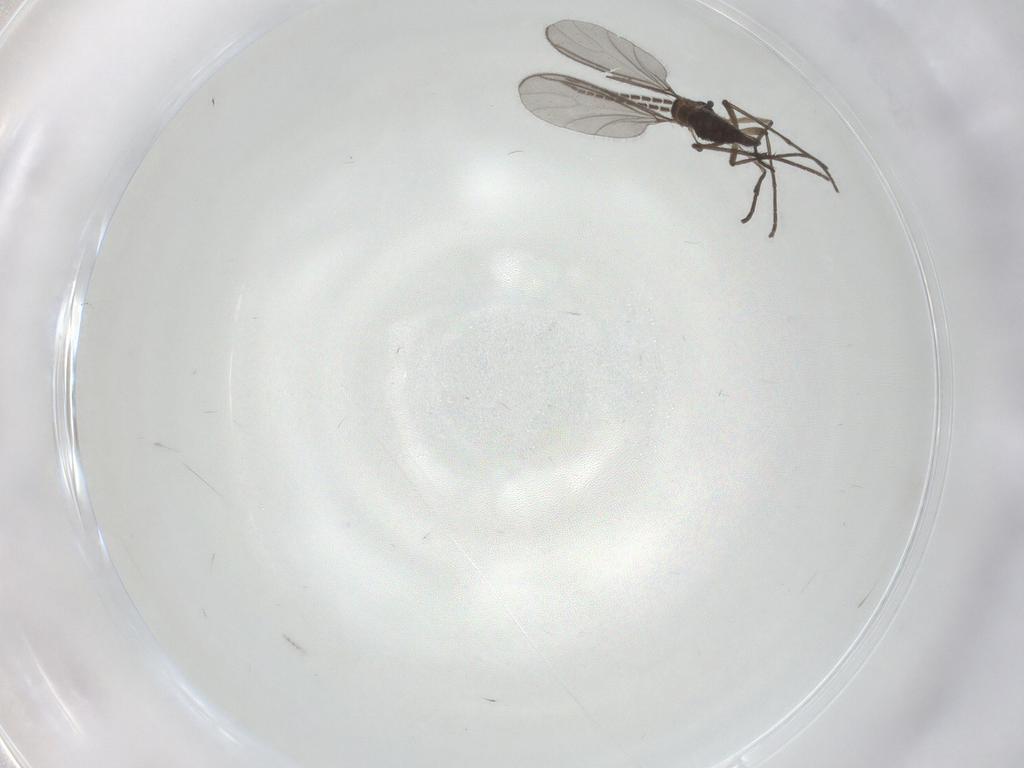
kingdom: Animalia
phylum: Arthropoda
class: Insecta
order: Diptera
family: Sciaridae
